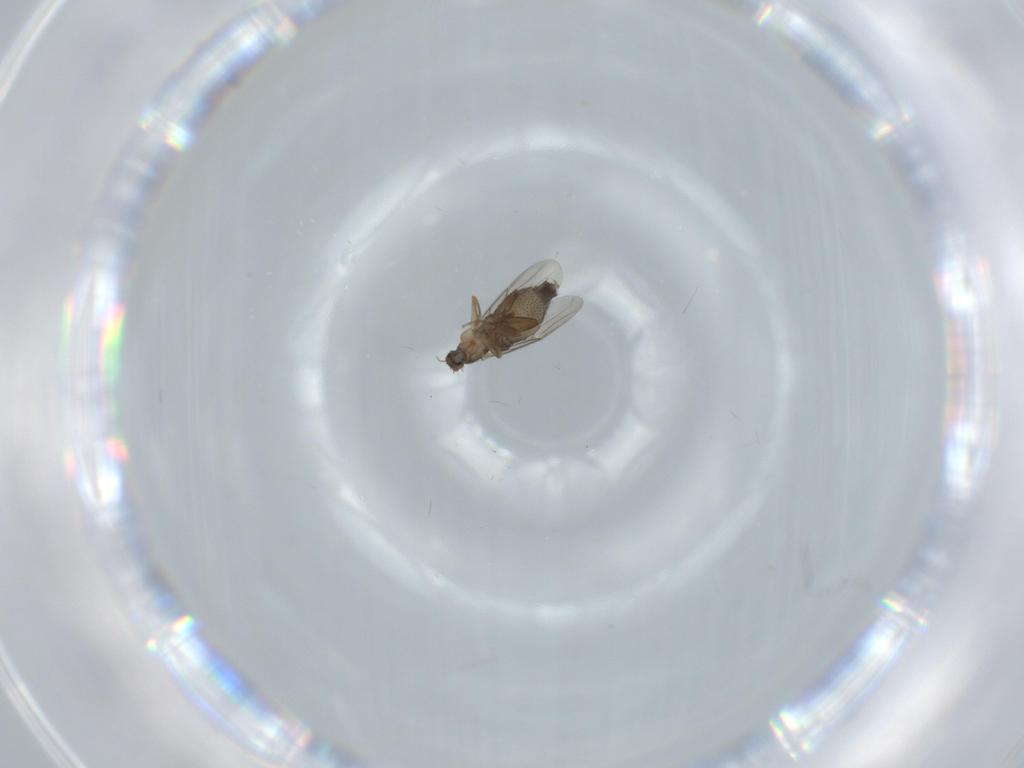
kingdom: Animalia
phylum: Arthropoda
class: Insecta
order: Diptera
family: Phoridae
